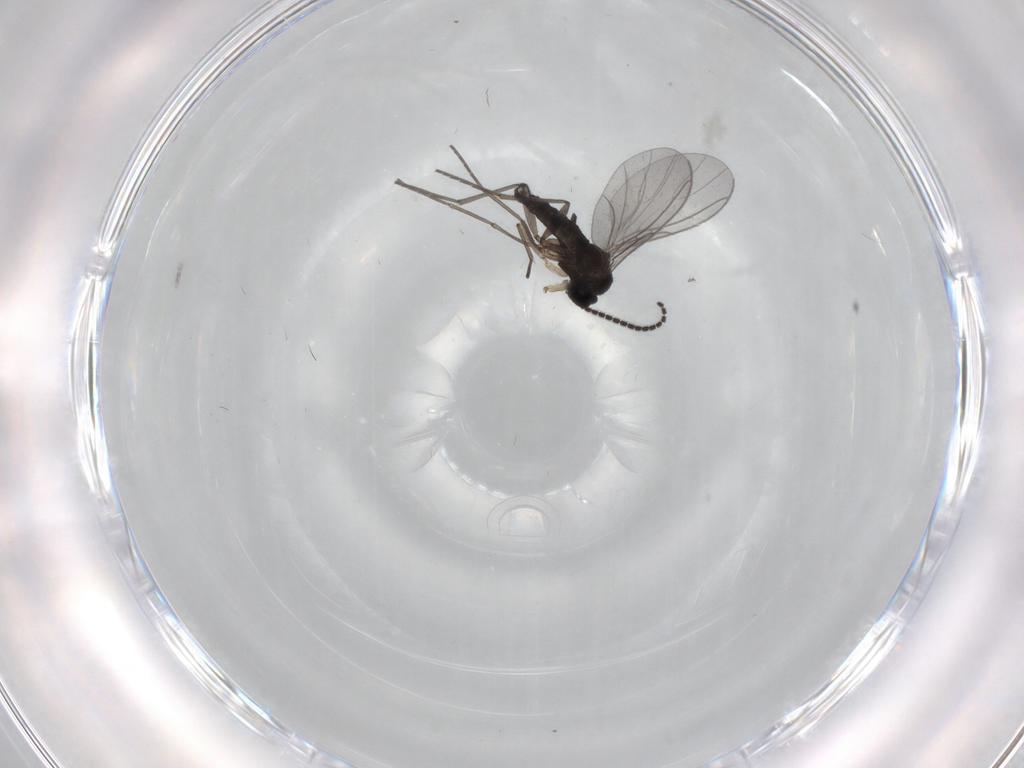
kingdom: Animalia
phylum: Arthropoda
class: Insecta
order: Diptera
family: Sciaridae
